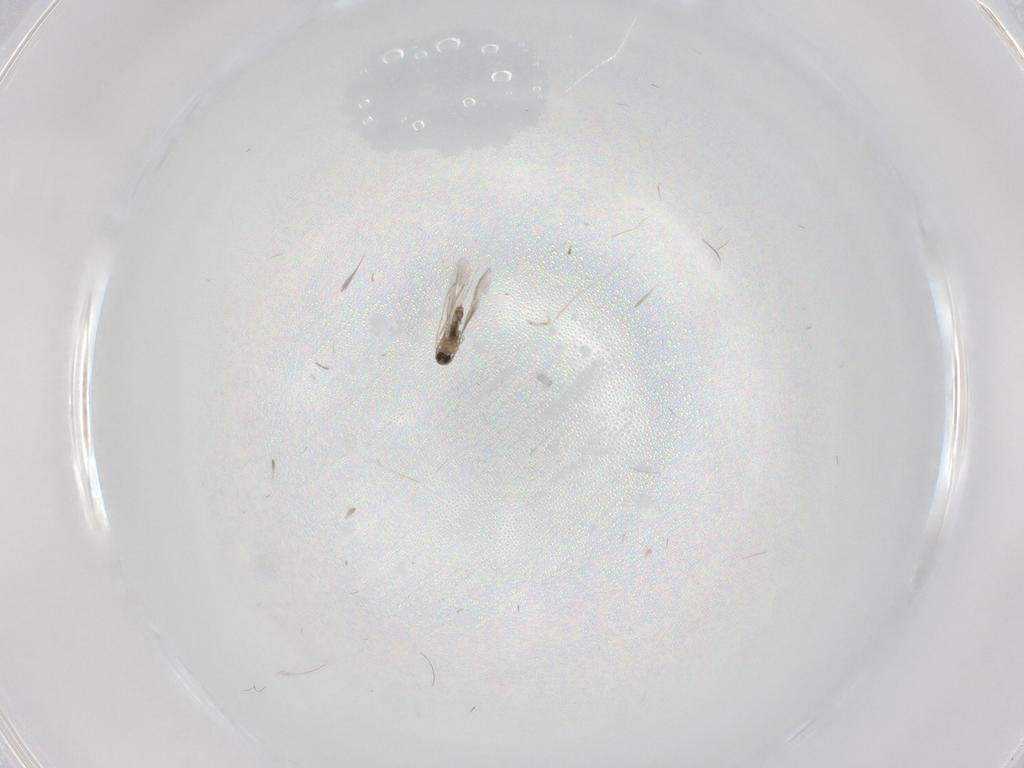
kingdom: Animalia
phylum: Arthropoda
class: Insecta
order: Diptera
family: Cecidomyiidae
